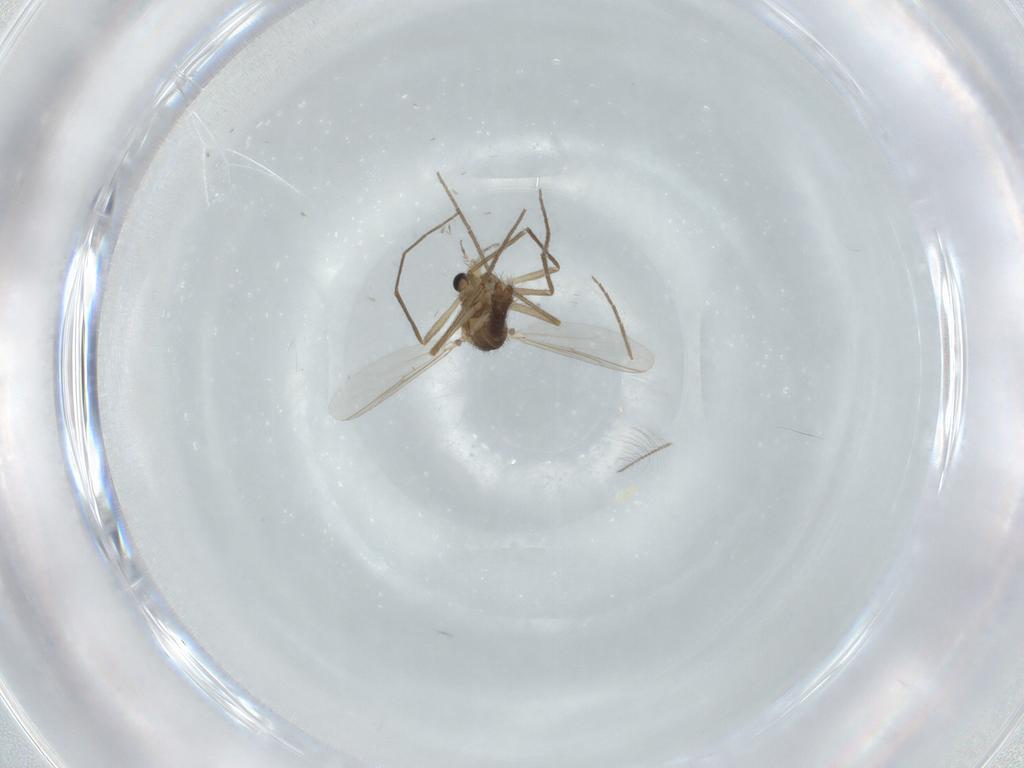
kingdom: Animalia
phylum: Arthropoda
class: Insecta
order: Diptera
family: Chironomidae
